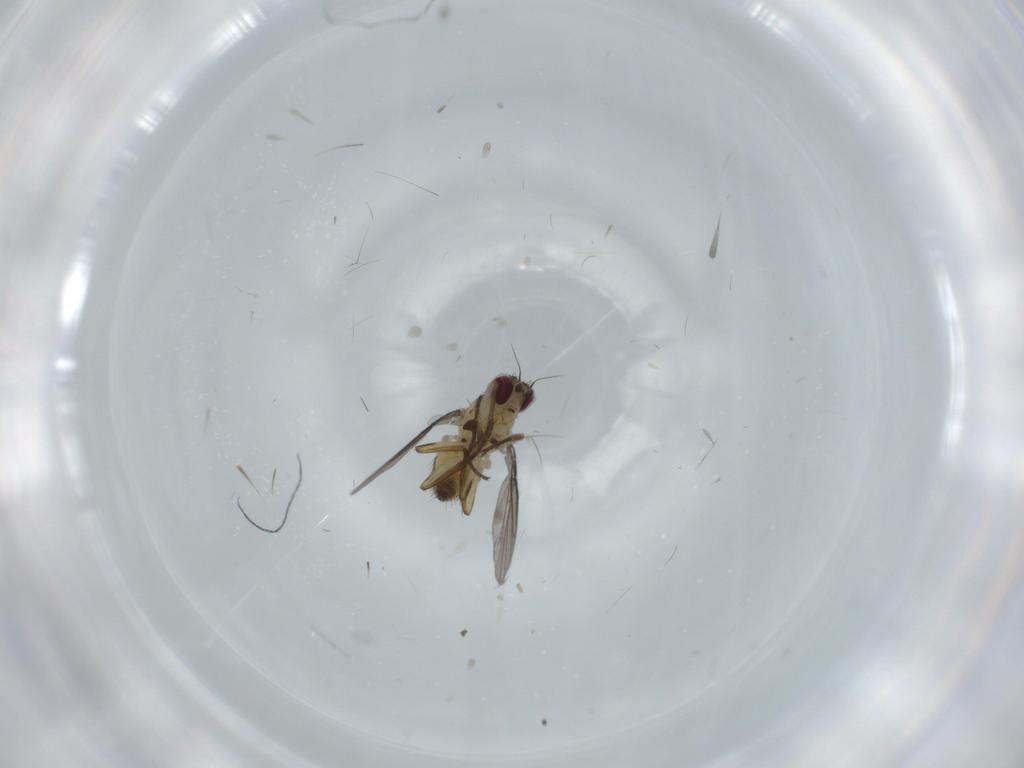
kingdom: Animalia
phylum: Arthropoda
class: Insecta
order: Diptera
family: Agromyzidae
